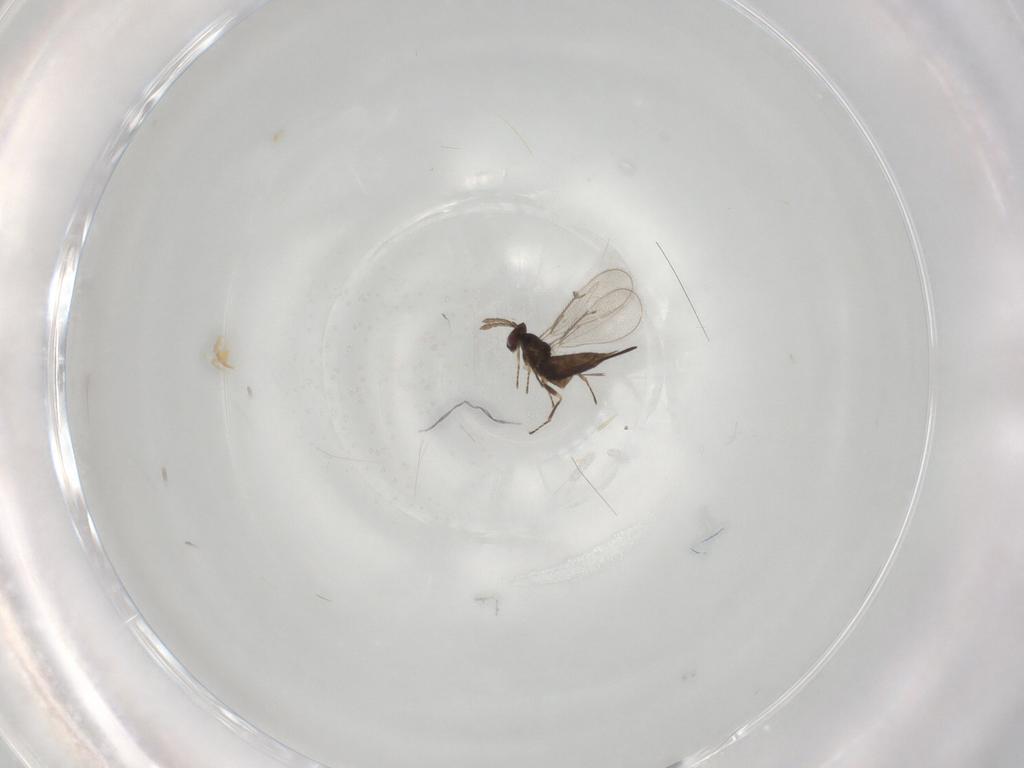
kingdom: Animalia
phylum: Arthropoda
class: Insecta
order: Hymenoptera
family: Eulophidae
